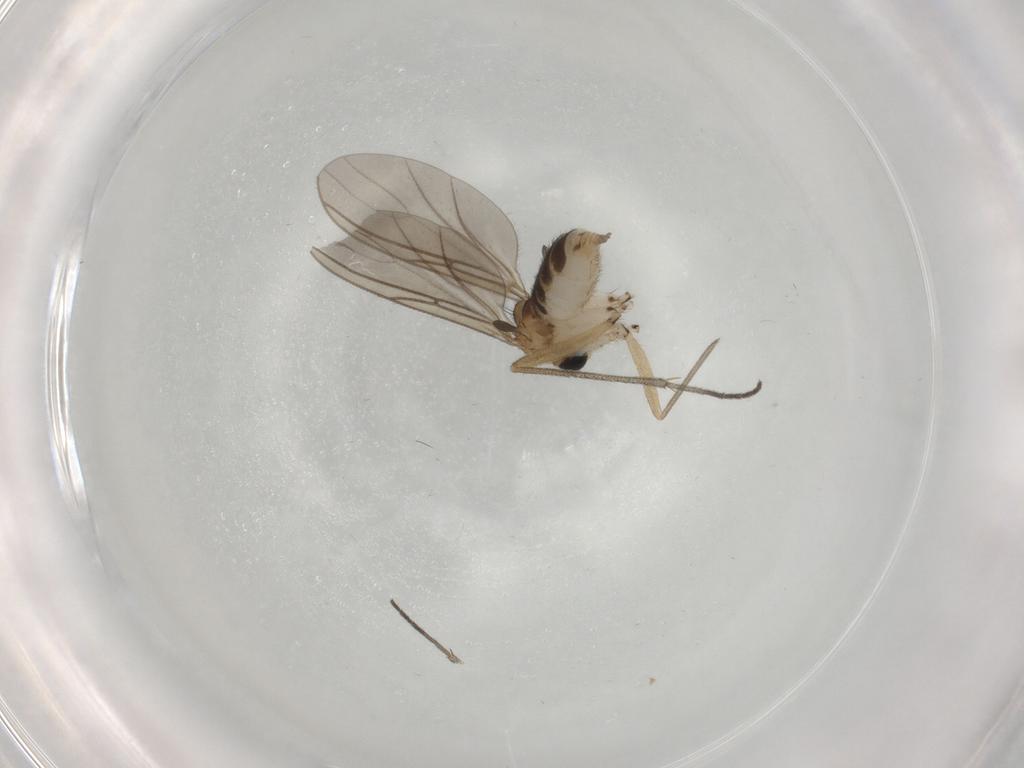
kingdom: Animalia
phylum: Arthropoda
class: Insecta
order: Diptera
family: Sciaridae
